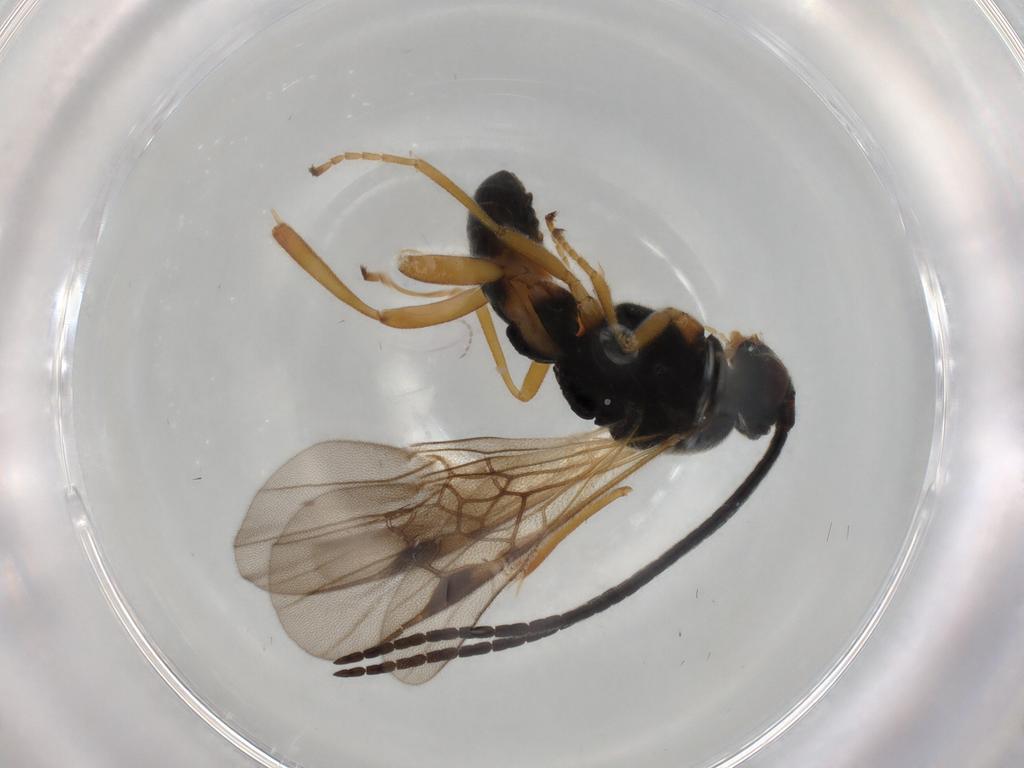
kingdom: Animalia
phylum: Arthropoda
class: Insecta
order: Hymenoptera
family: Braconidae
